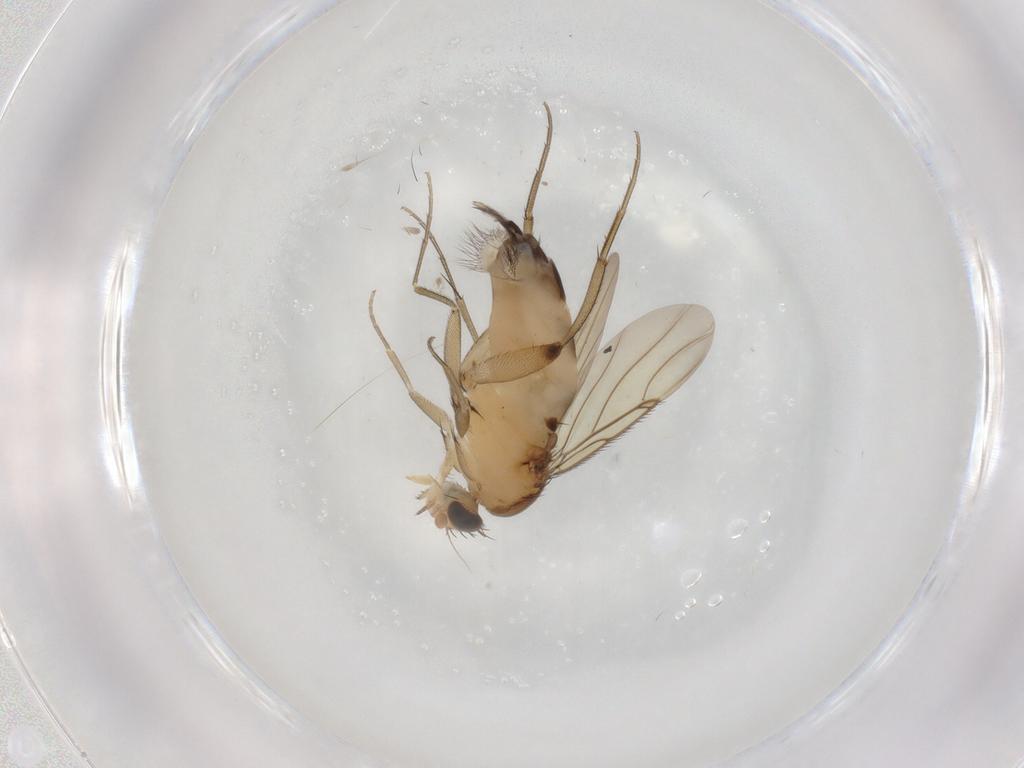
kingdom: Animalia
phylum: Arthropoda
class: Insecta
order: Diptera
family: Phoridae
